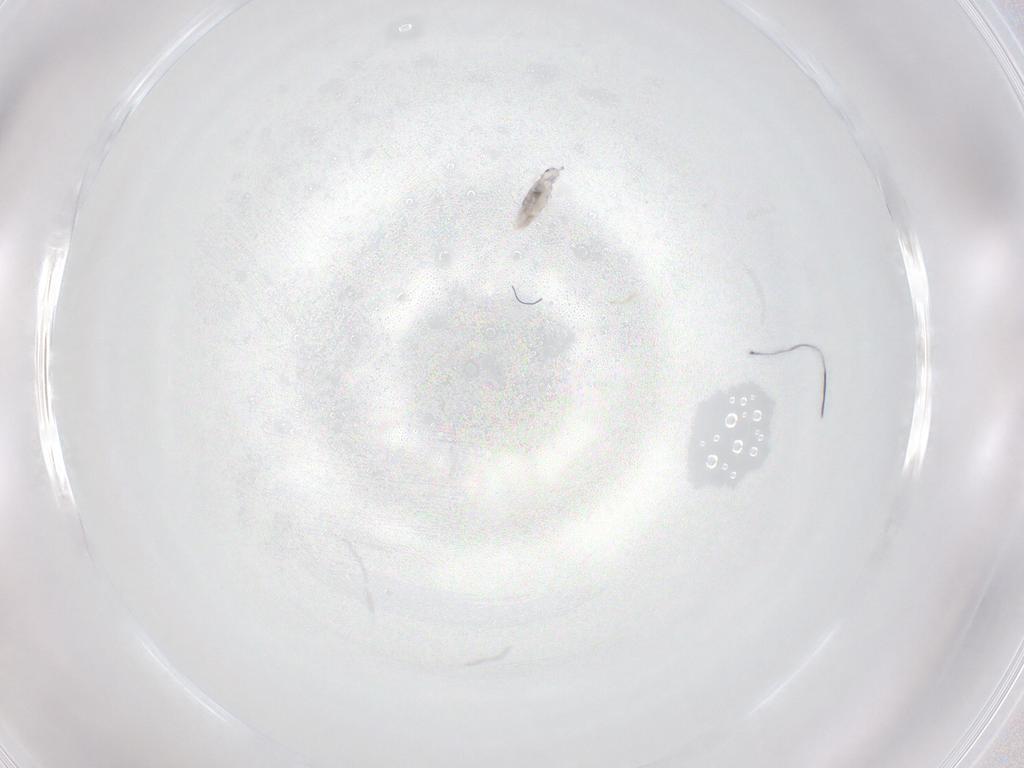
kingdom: Animalia
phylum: Arthropoda
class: Collembola
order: Entomobryomorpha
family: Entomobryidae
